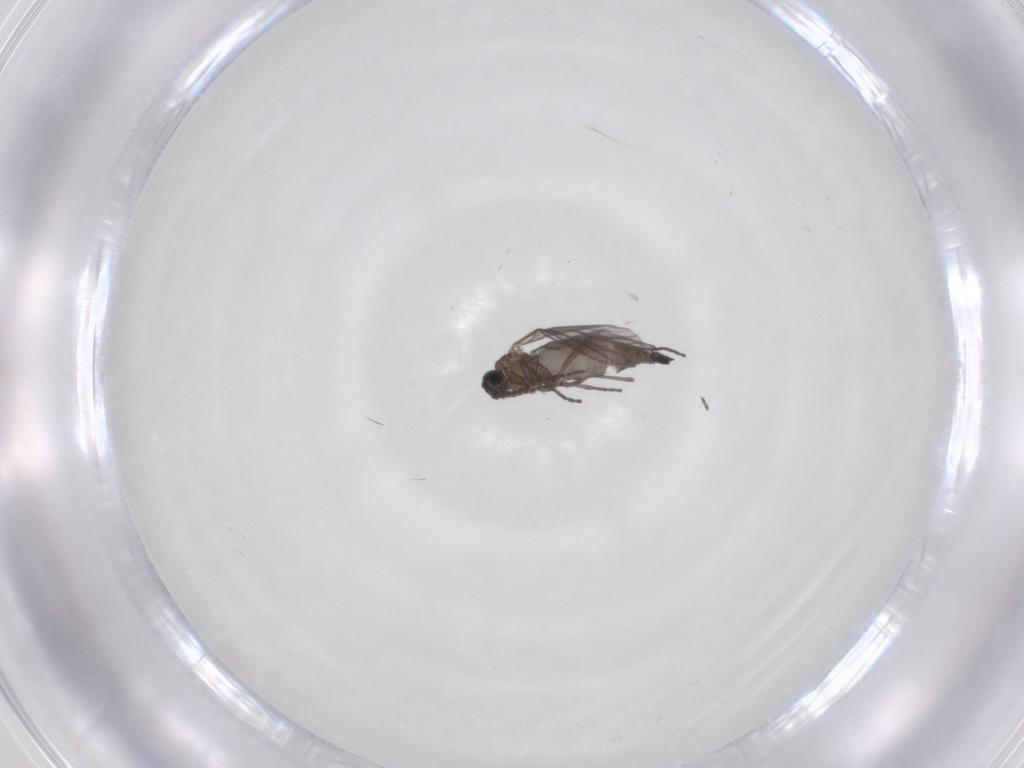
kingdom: Animalia
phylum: Arthropoda
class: Insecta
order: Diptera
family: Sciaridae
